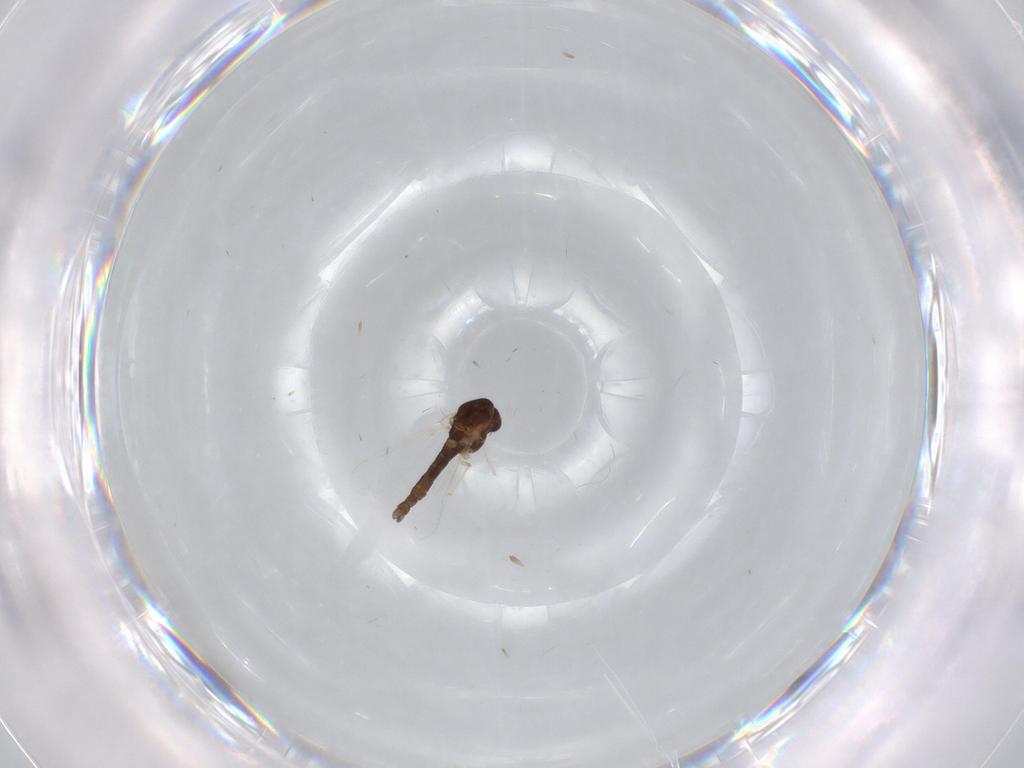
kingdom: Animalia
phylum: Arthropoda
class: Insecta
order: Diptera
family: Chironomidae
